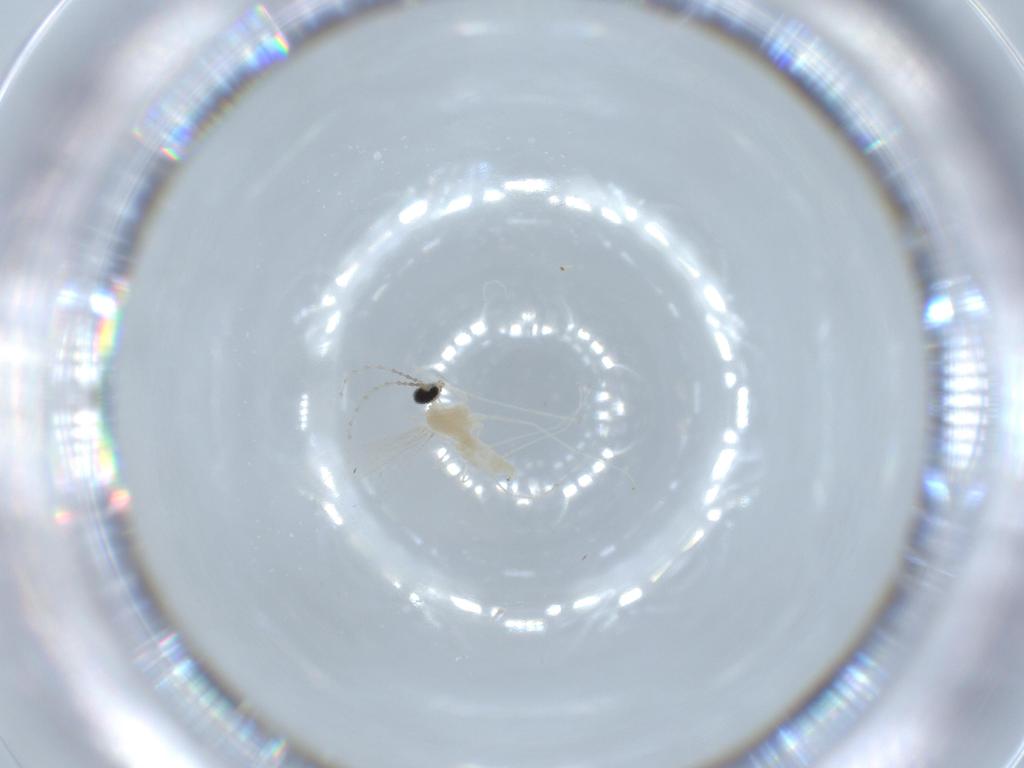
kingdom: Animalia
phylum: Arthropoda
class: Insecta
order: Diptera
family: Cecidomyiidae
